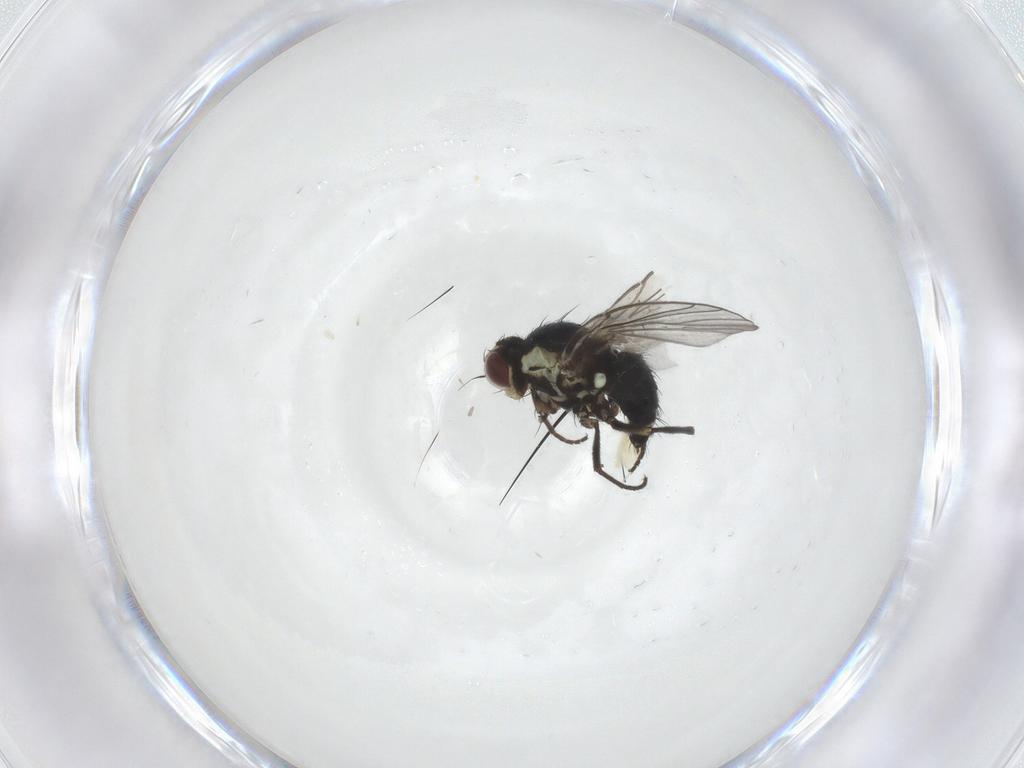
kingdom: Animalia
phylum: Arthropoda
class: Insecta
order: Diptera
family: Agromyzidae
